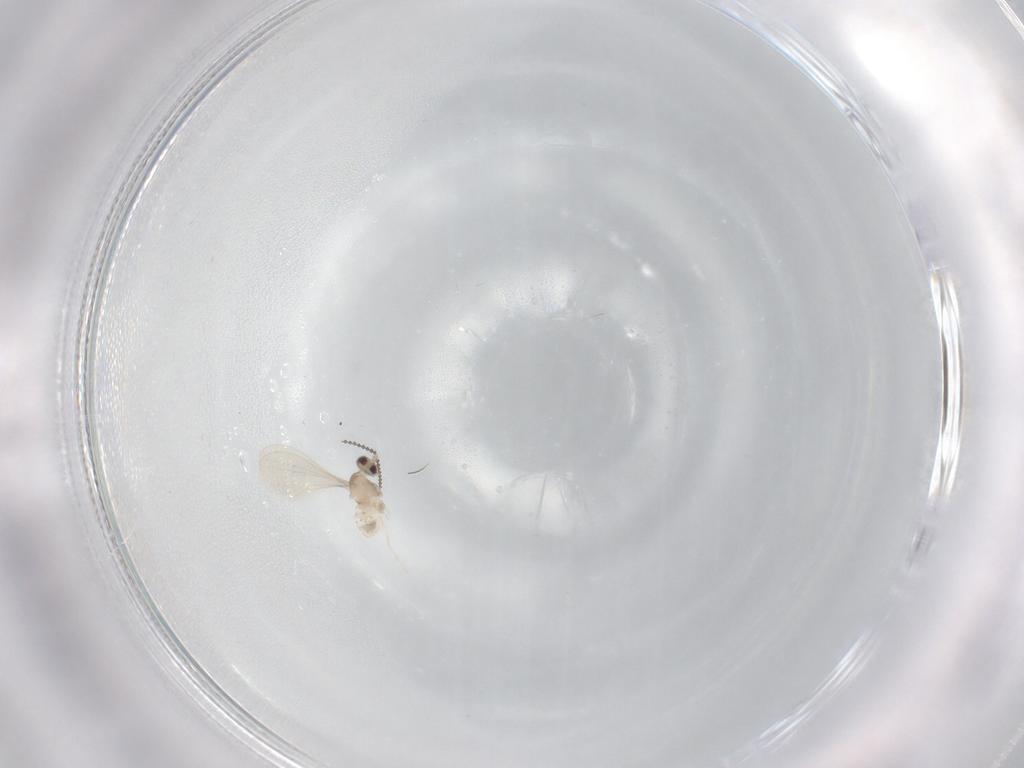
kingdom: Animalia
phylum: Arthropoda
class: Insecta
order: Diptera
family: Cecidomyiidae
